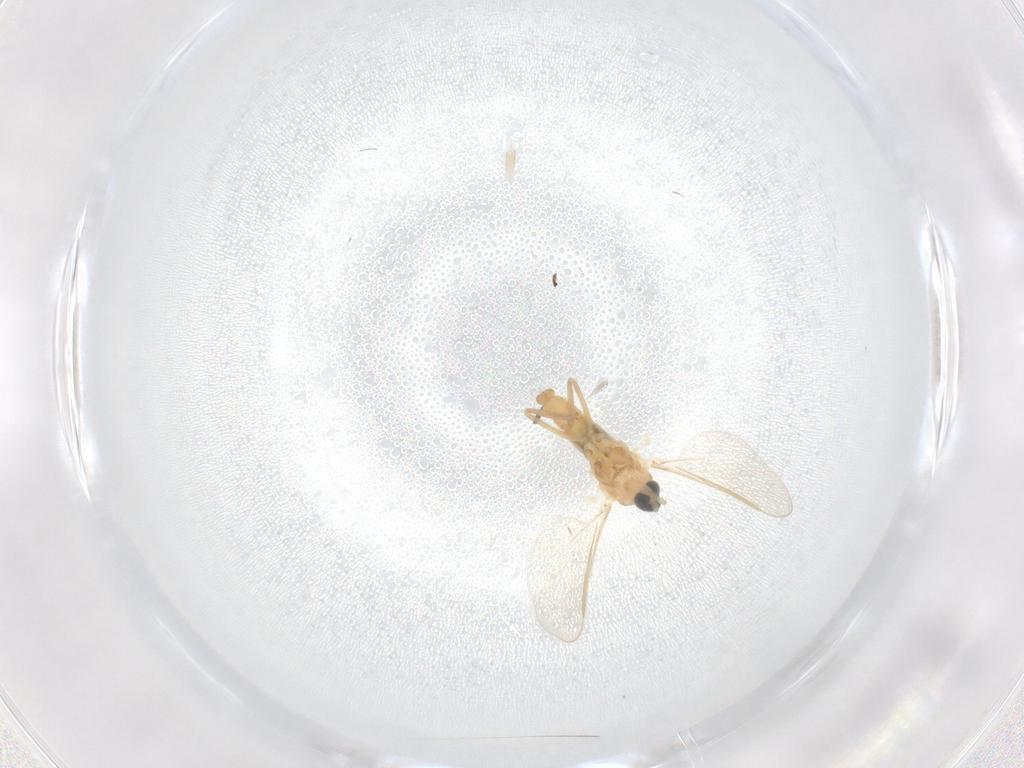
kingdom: Animalia
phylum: Arthropoda
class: Insecta
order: Diptera
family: Cecidomyiidae
